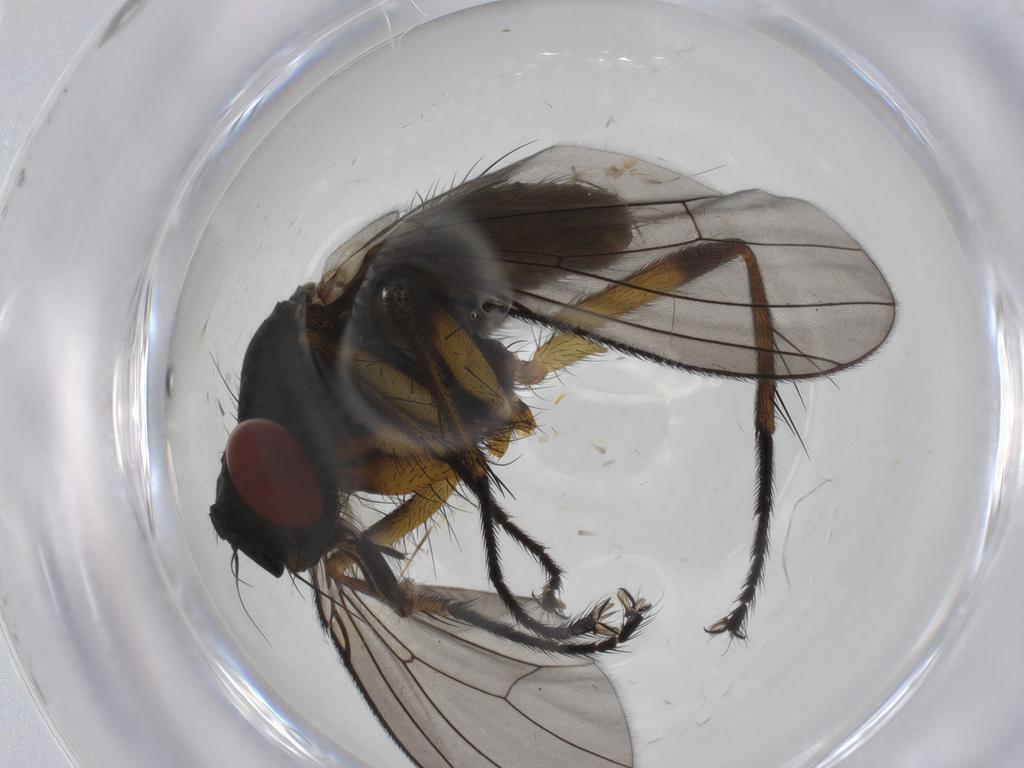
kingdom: Animalia
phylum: Arthropoda
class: Insecta
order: Diptera
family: Muscidae
